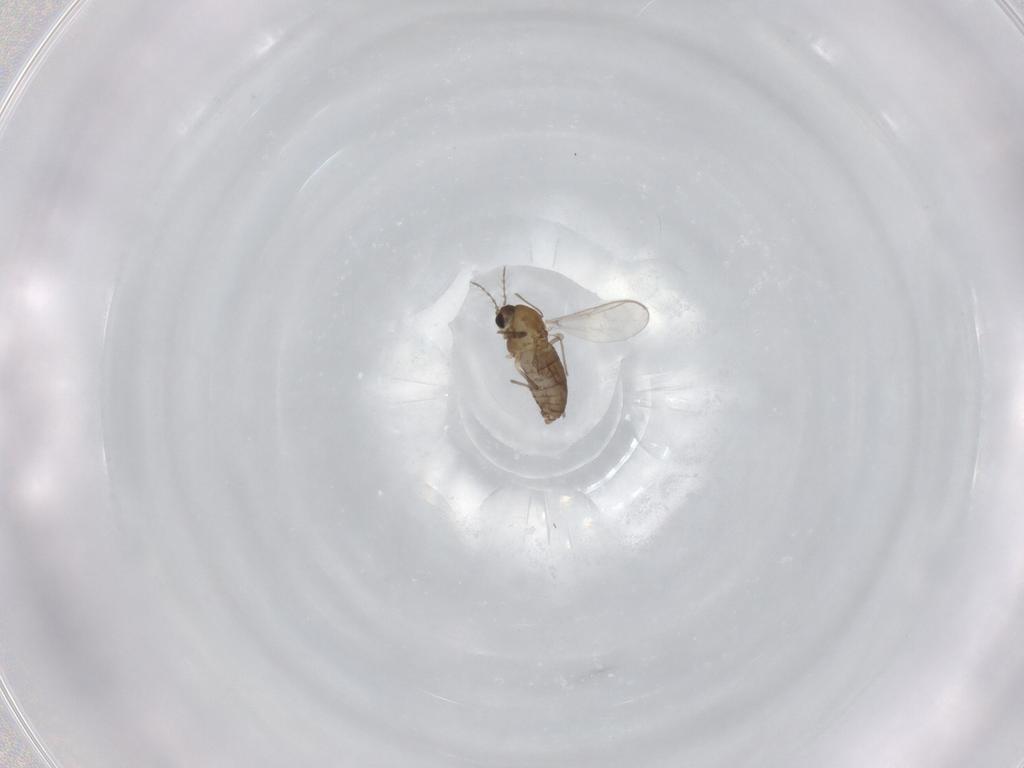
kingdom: Animalia
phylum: Arthropoda
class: Insecta
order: Diptera
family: Chironomidae
